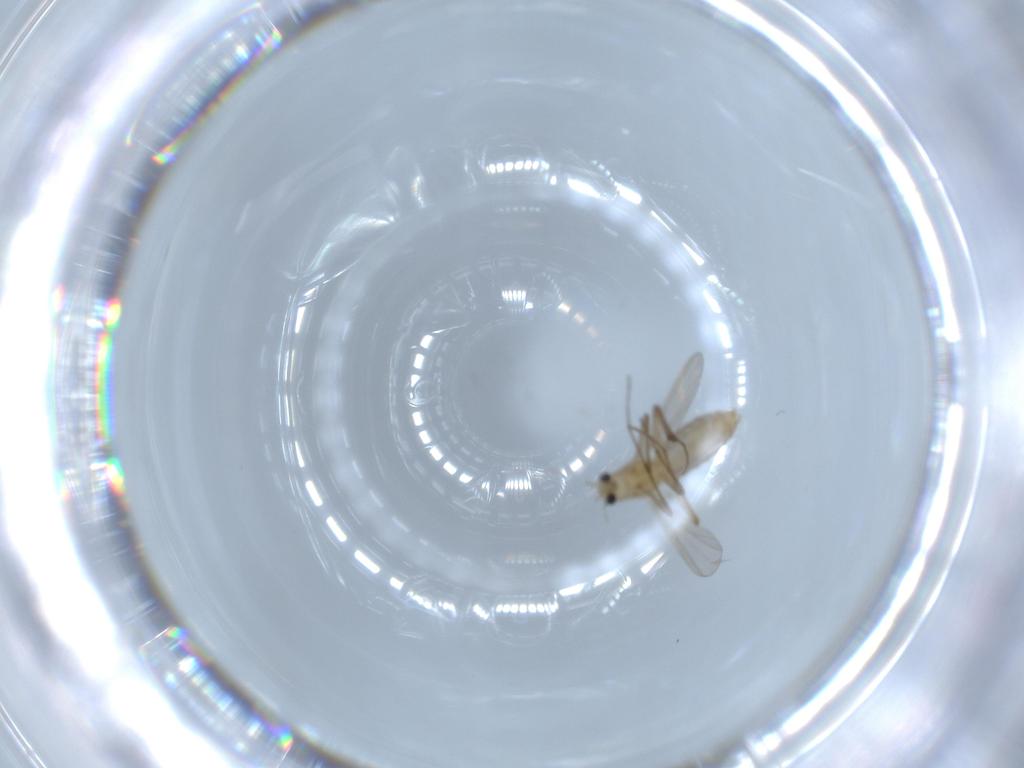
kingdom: Animalia
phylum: Arthropoda
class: Insecta
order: Diptera
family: Chironomidae
